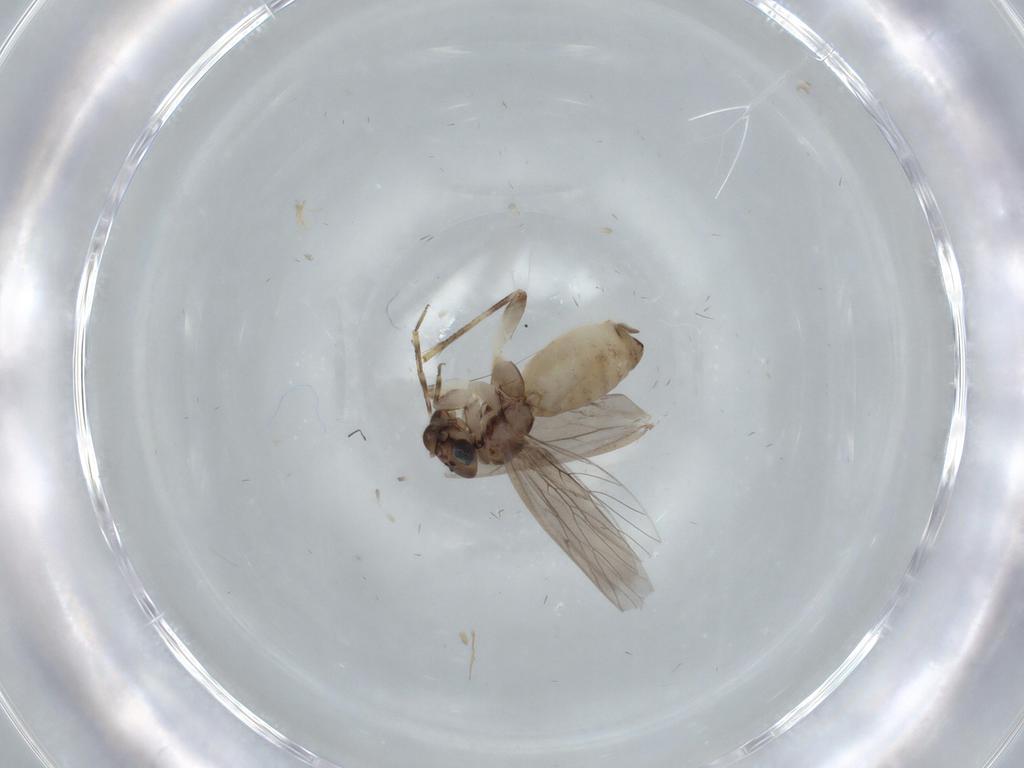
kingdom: Animalia
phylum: Arthropoda
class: Insecta
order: Psocodea
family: Lepidopsocidae
